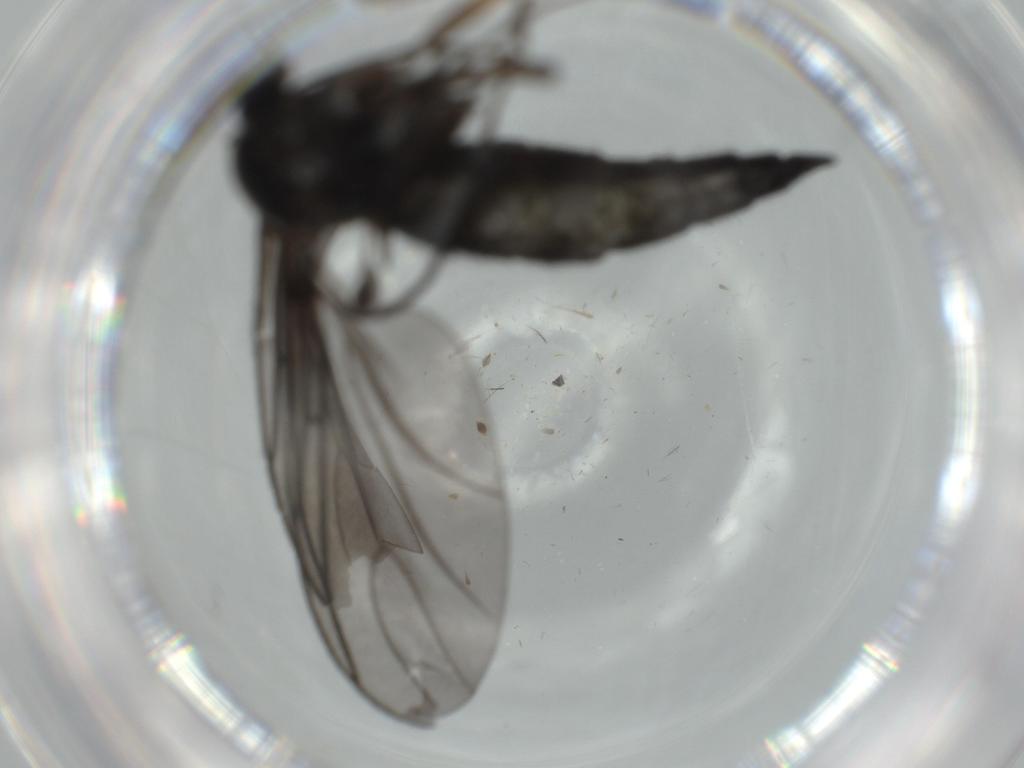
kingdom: Animalia
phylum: Arthropoda
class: Insecta
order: Diptera
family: Sciaridae
